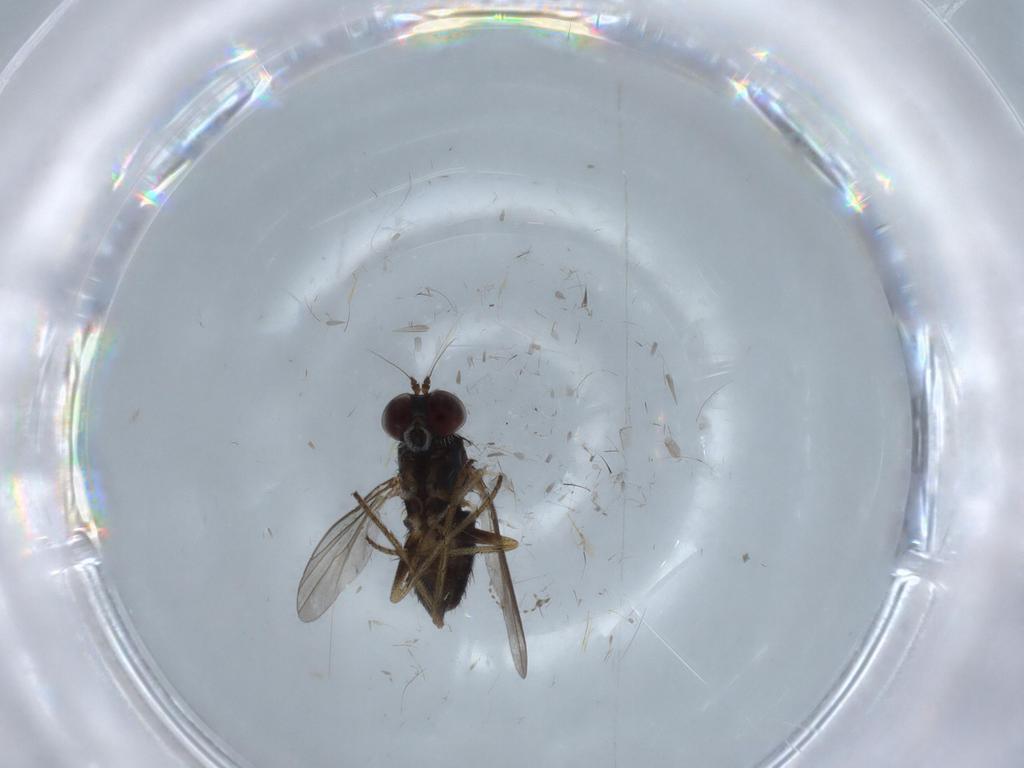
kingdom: Animalia
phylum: Arthropoda
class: Insecta
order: Diptera
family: Cecidomyiidae
